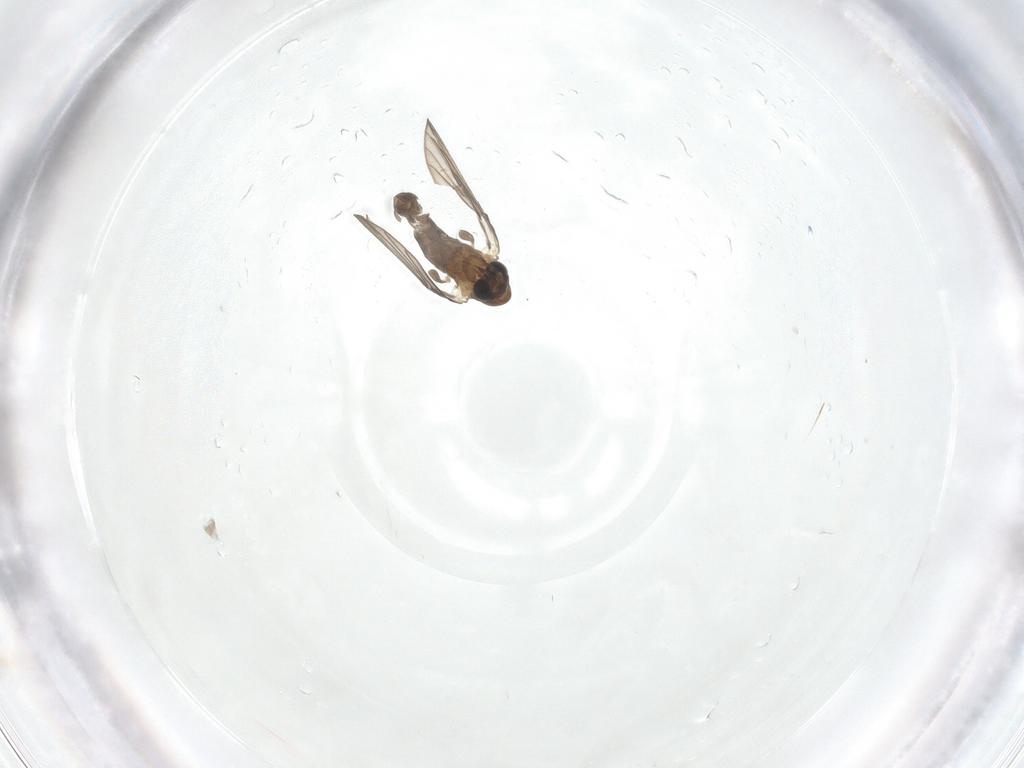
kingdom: Animalia
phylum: Arthropoda
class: Insecta
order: Diptera
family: Psychodidae
